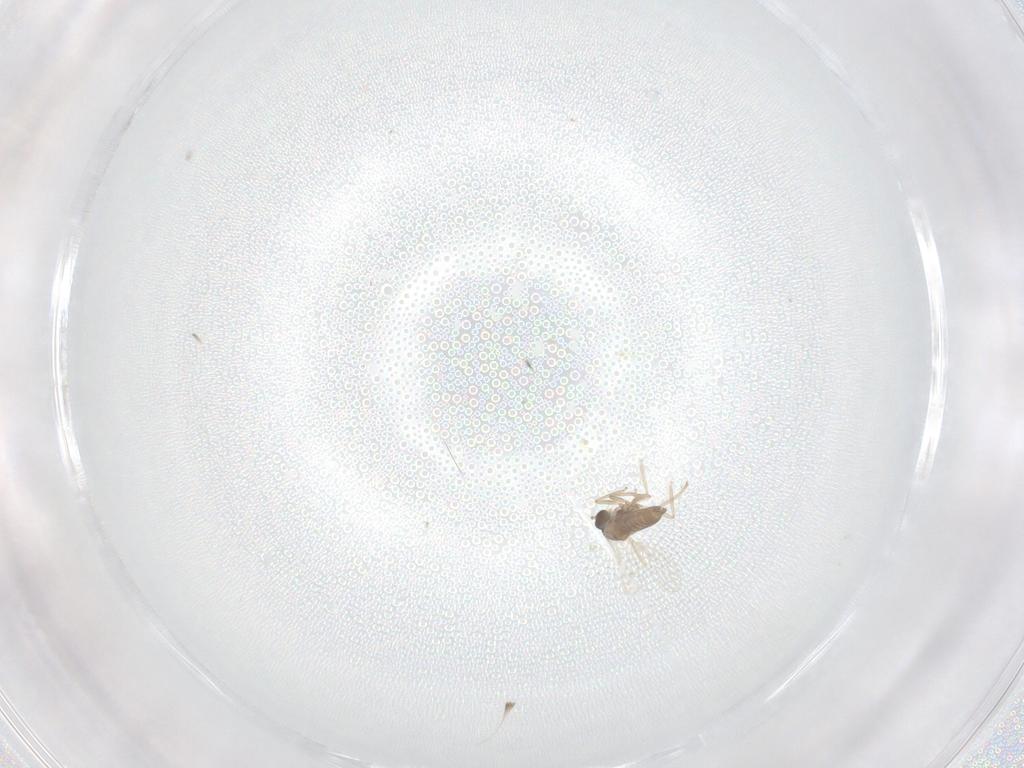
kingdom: Animalia
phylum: Arthropoda
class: Insecta
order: Diptera
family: Cecidomyiidae
